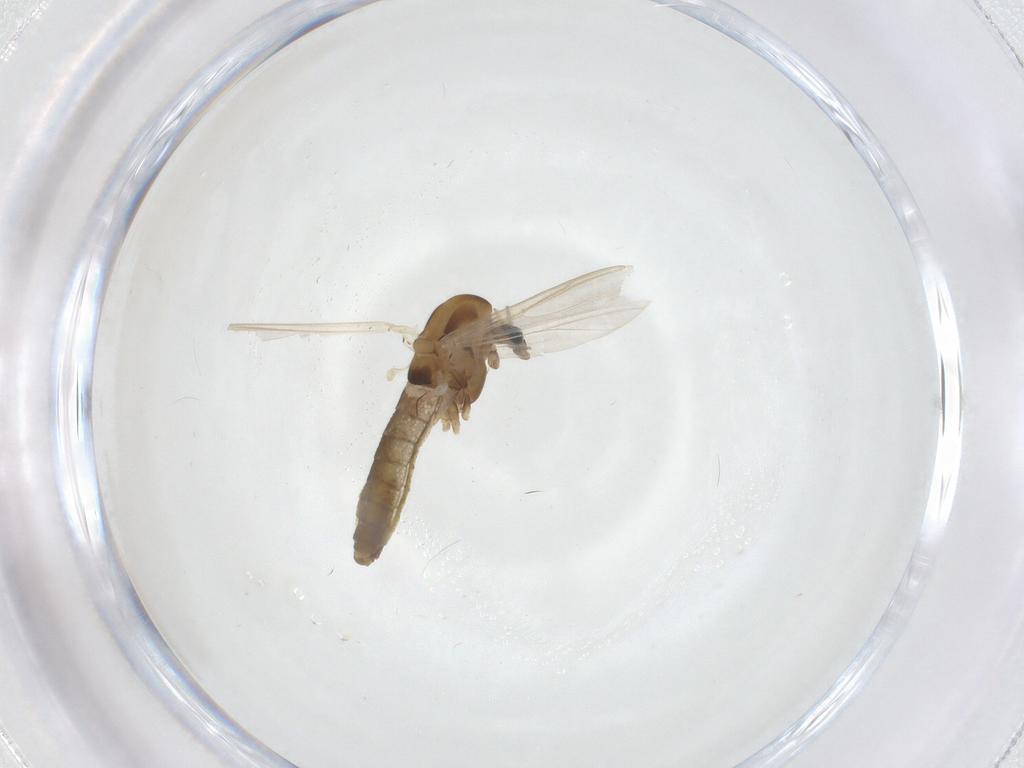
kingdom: Animalia
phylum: Arthropoda
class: Insecta
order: Diptera
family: Chironomidae
